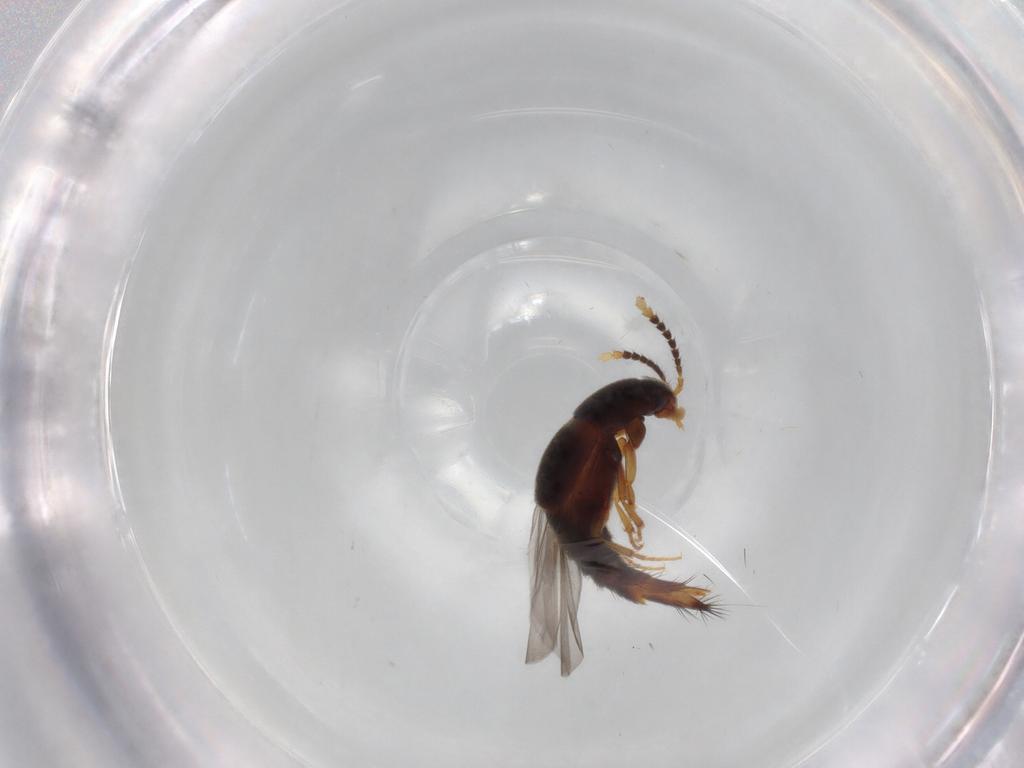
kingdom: Animalia
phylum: Arthropoda
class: Insecta
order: Coleoptera
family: Staphylinidae
